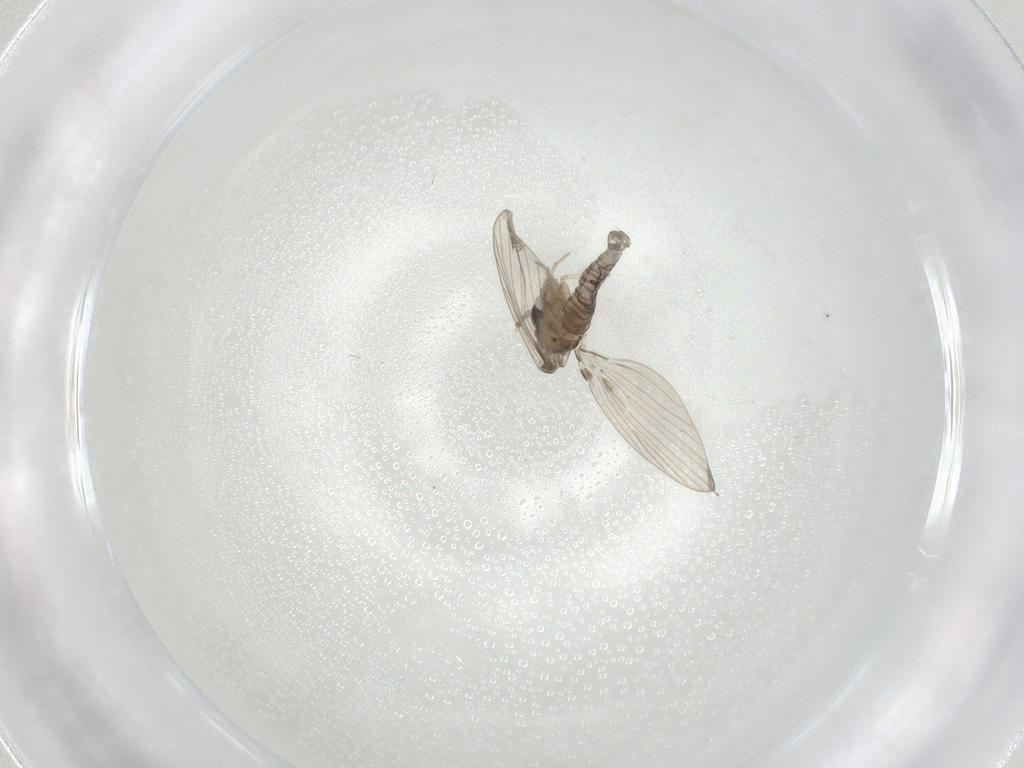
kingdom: Animalia
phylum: Arthropoda
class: Insecta
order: Diptera
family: Psychodidae
